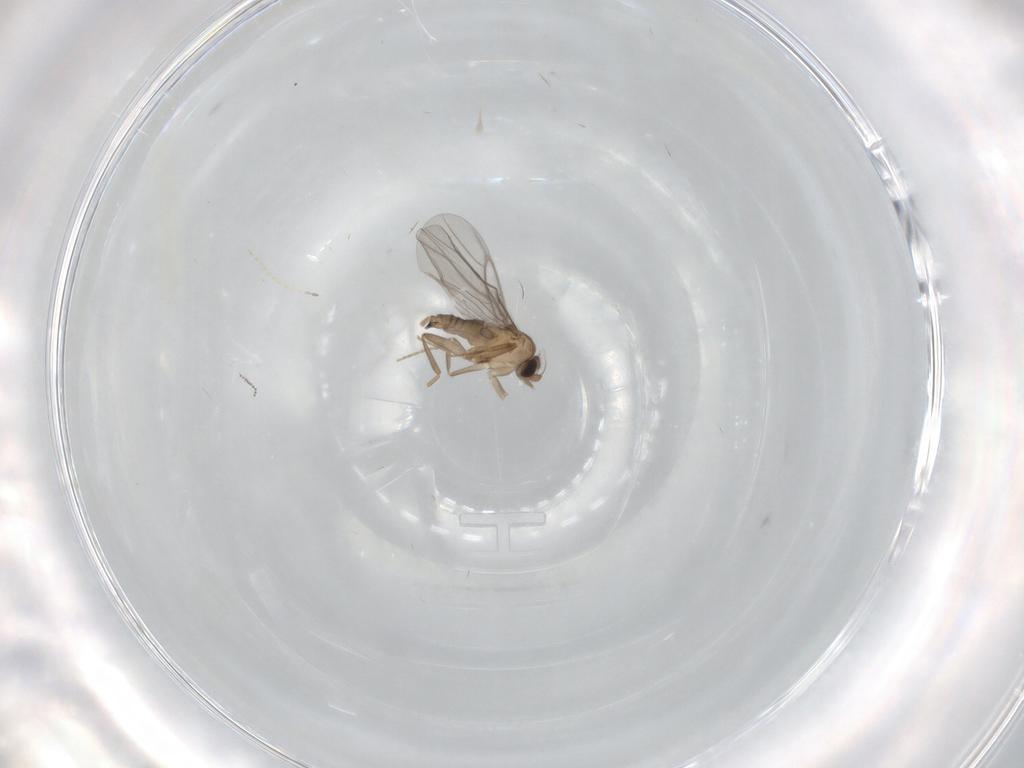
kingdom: Animalia
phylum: Arthropoda
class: Insecta
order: Diptera
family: Cecidomyiidae
